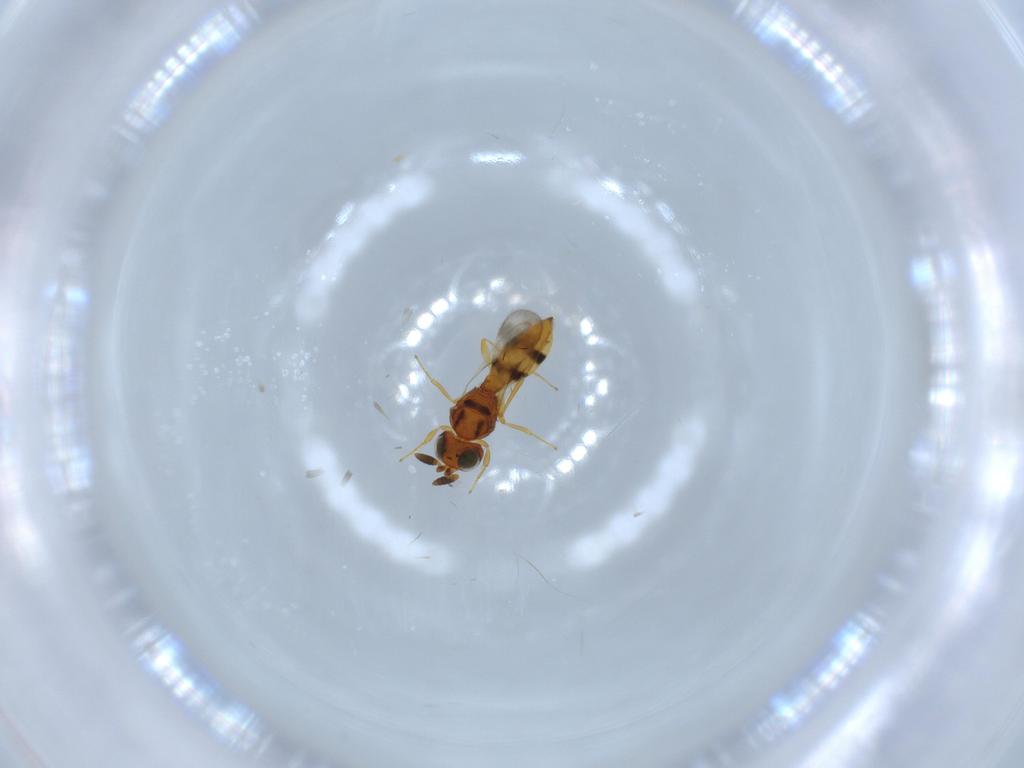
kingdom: Animalia
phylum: Arthropoda
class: Insecta
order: Hymenoptera
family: Scelionidae
